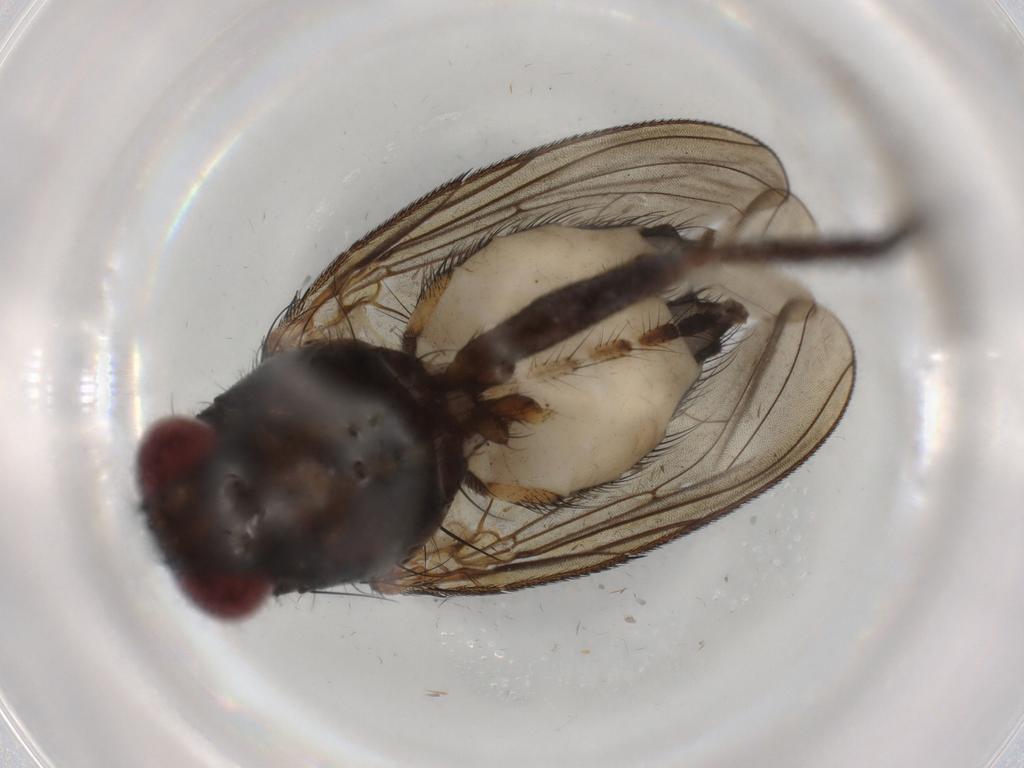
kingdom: Animalia
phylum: Arthropoda
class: Insecta
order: Diptera
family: Anthomyiidae
